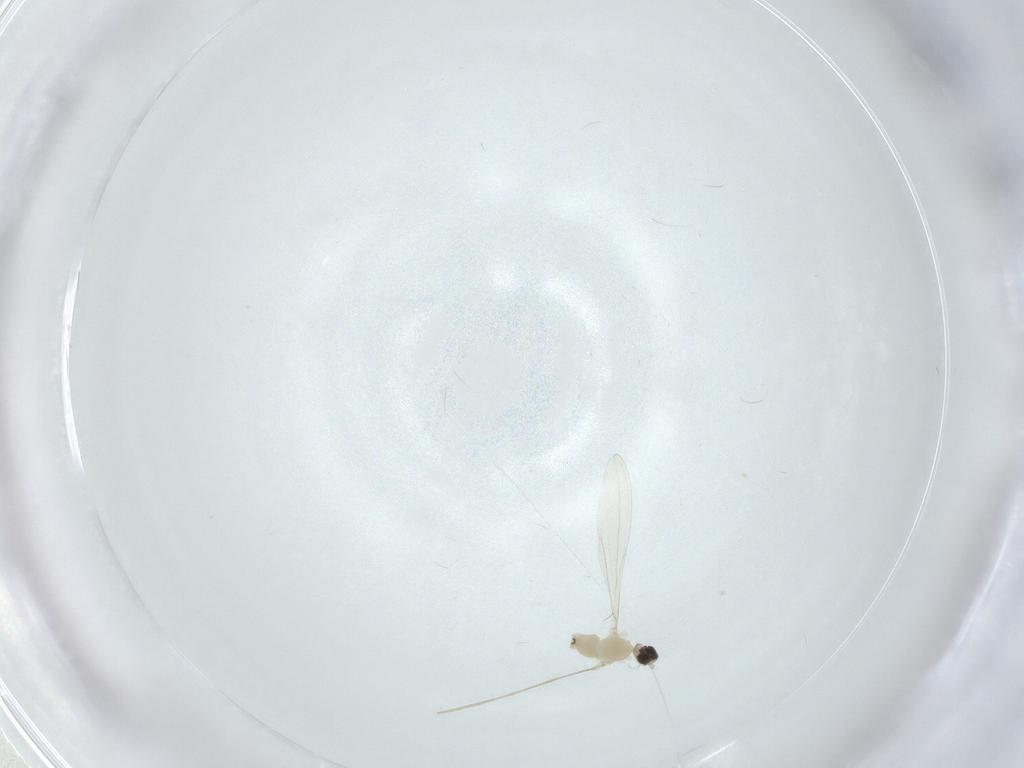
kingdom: Animalia
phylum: Arthropoda
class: Insecta
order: Diptera
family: Cecidomyiidae
